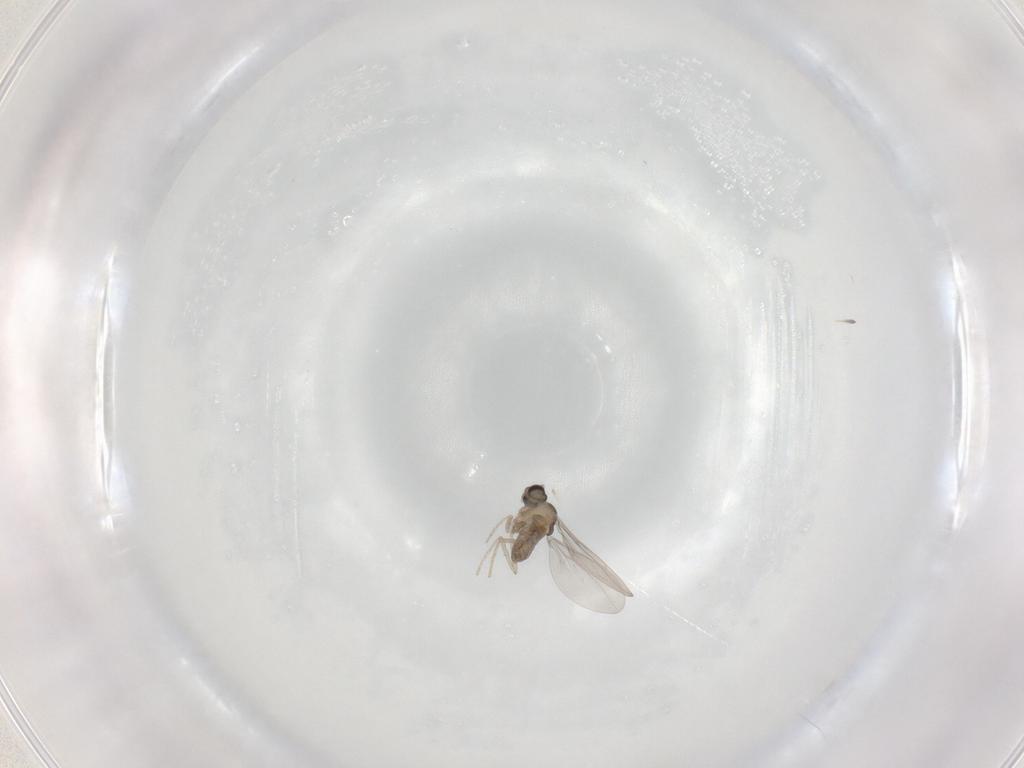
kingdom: Animalia
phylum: Arthropoda
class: Insecta
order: Diptera
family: Cecidomyiidae
